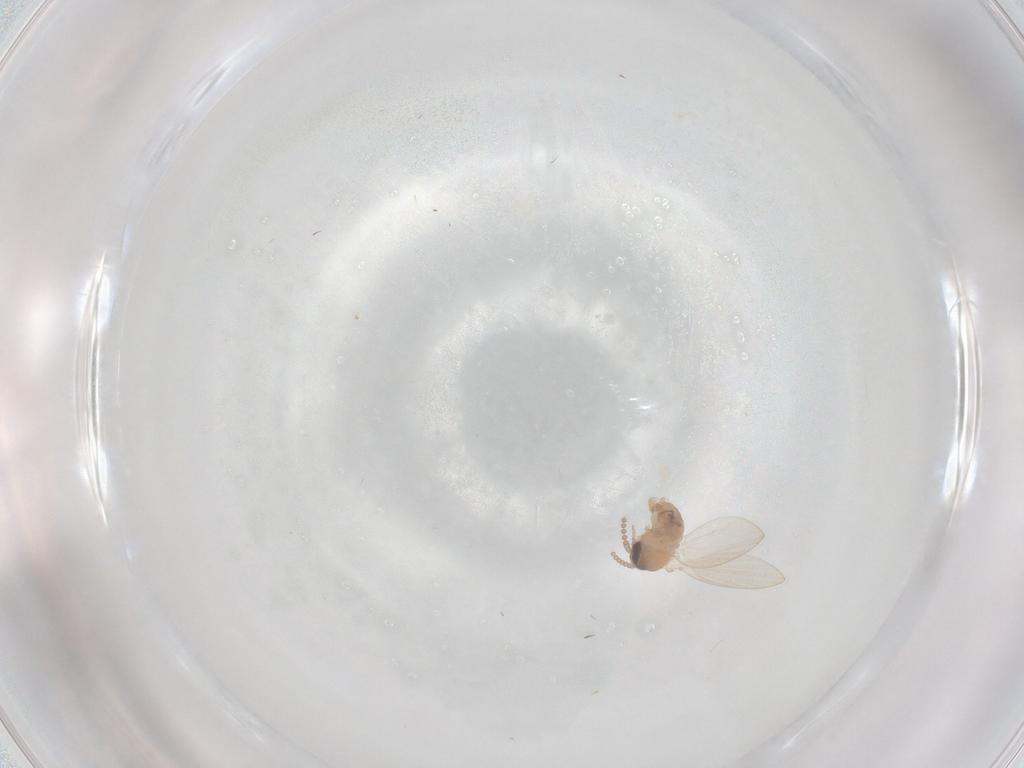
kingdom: Animalia
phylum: Arthropoda
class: Insecta
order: Diptera
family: Psychodidae
